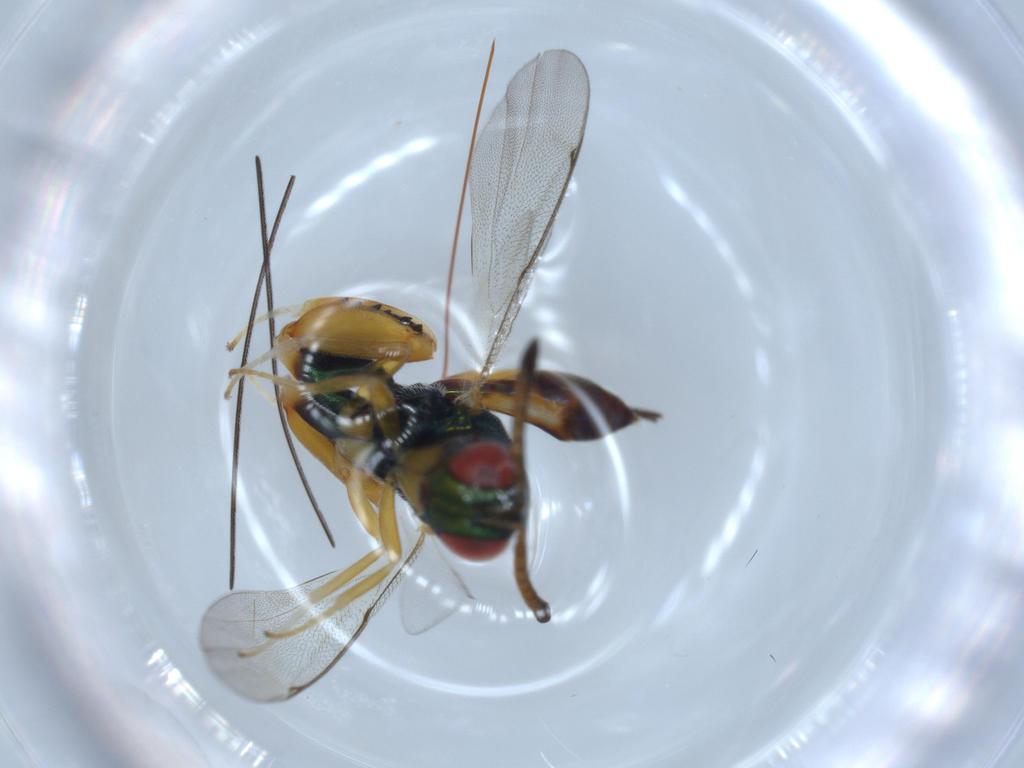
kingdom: Animalia
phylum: Arthropoda
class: Insecta
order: Hymenoptera
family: Torymidae
